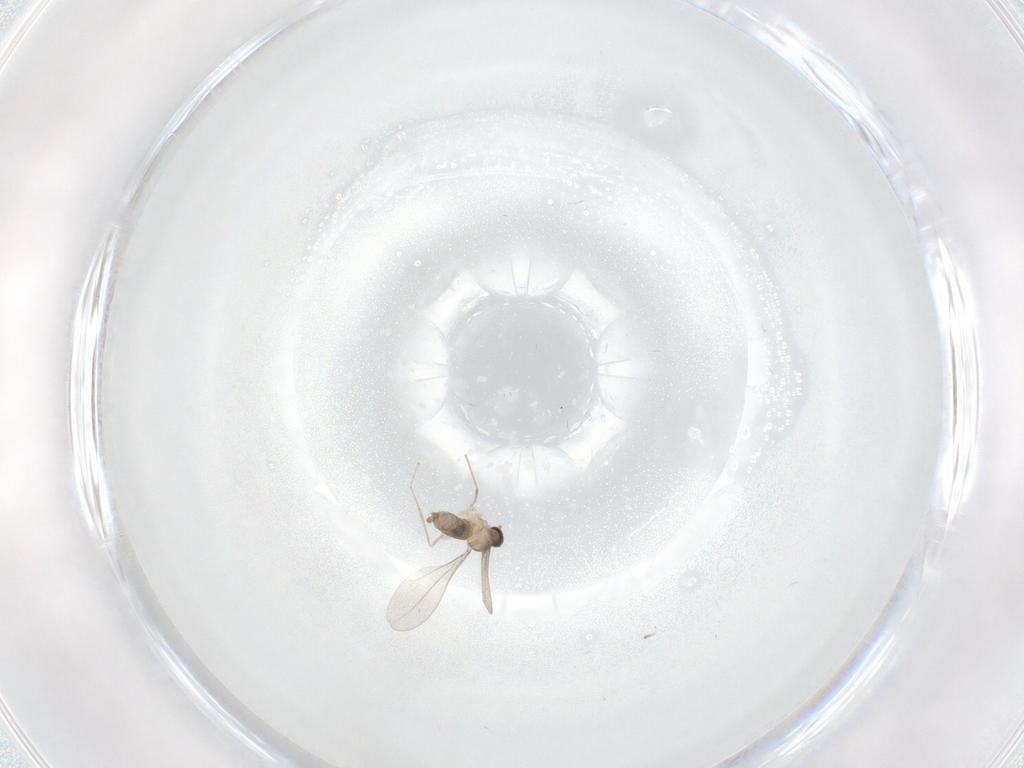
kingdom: Animalia
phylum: Arthropoda
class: Insecta
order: Diptera
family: Cecidomyiidae
